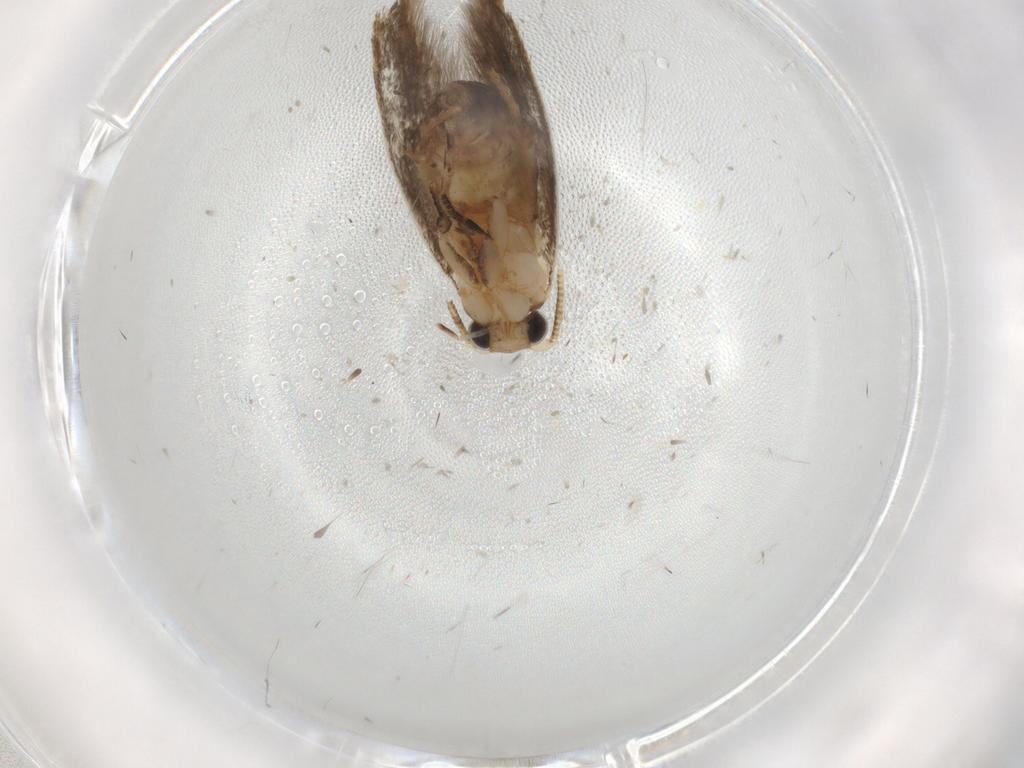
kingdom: Animalia
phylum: Arthropoda
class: Insecta
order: Lepidoptera
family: Tineidae
